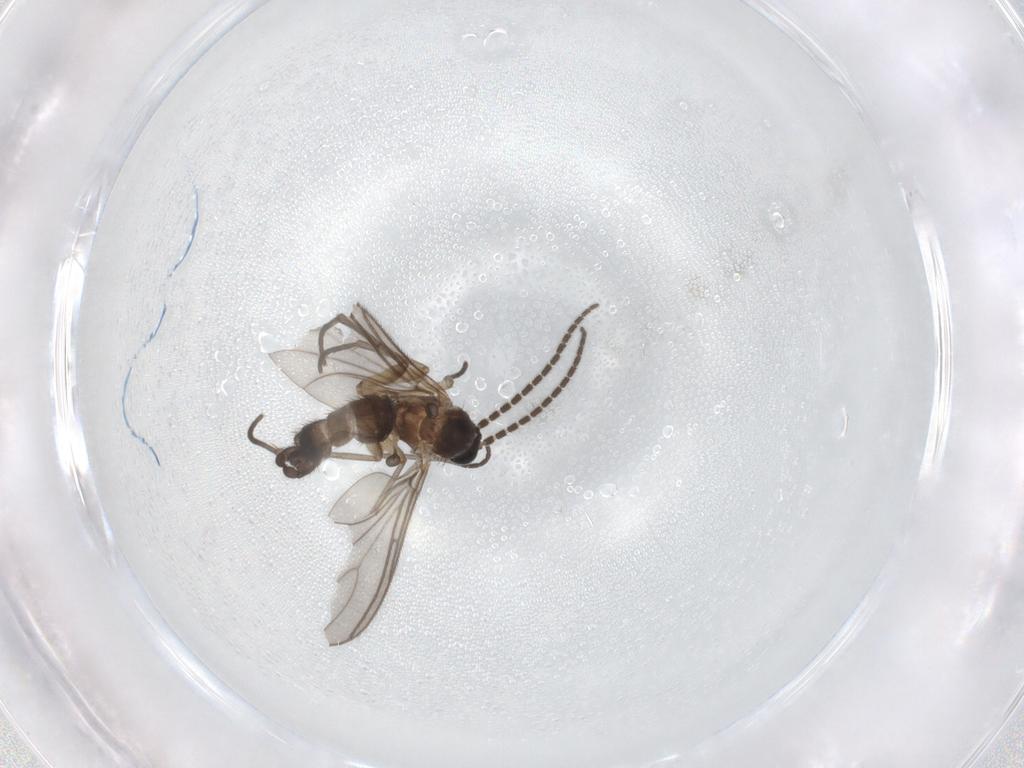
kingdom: Animalia
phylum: Arthropoda
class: Insecta
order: Diptera
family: Sciaridae
